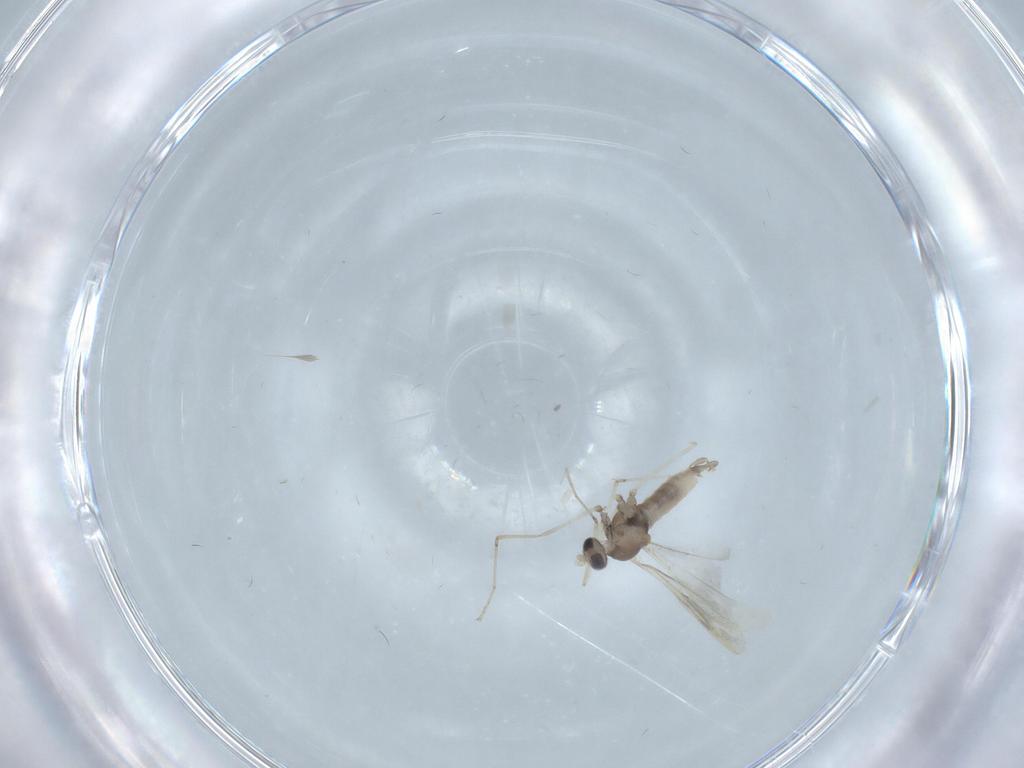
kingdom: Animalia
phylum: Arthropoda
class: Insecta
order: Diptera
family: Cecidomyiidae
